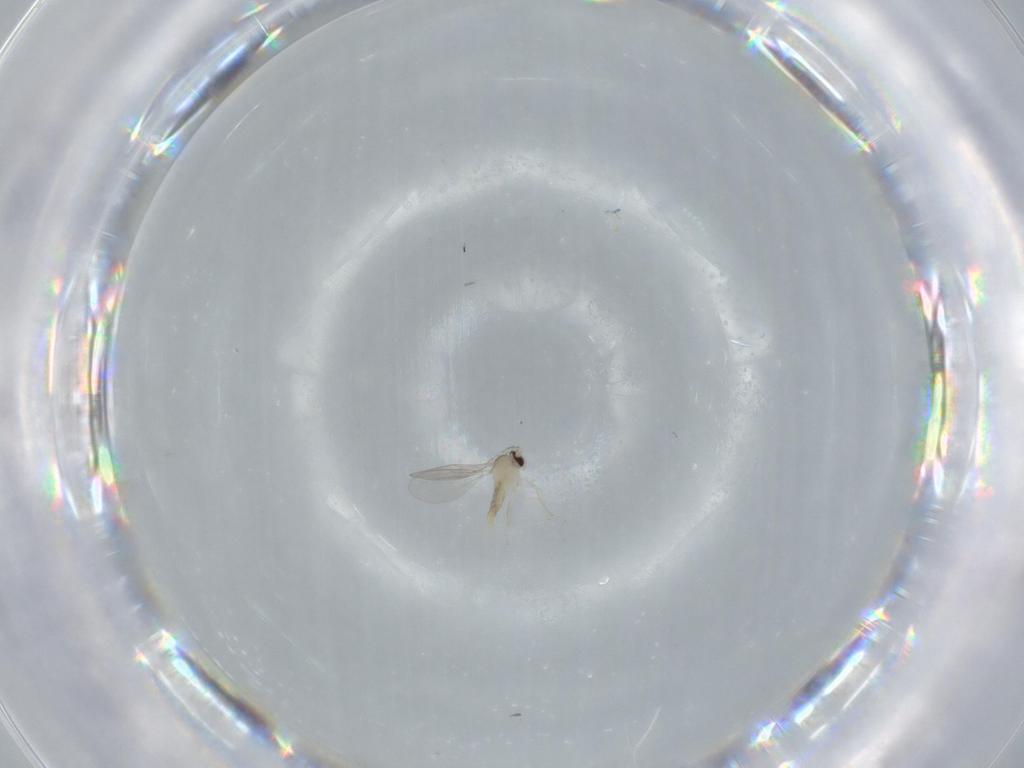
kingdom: Animalia
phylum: Arthropoda
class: Insecta
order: Diptera
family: Cecidomyiidae
